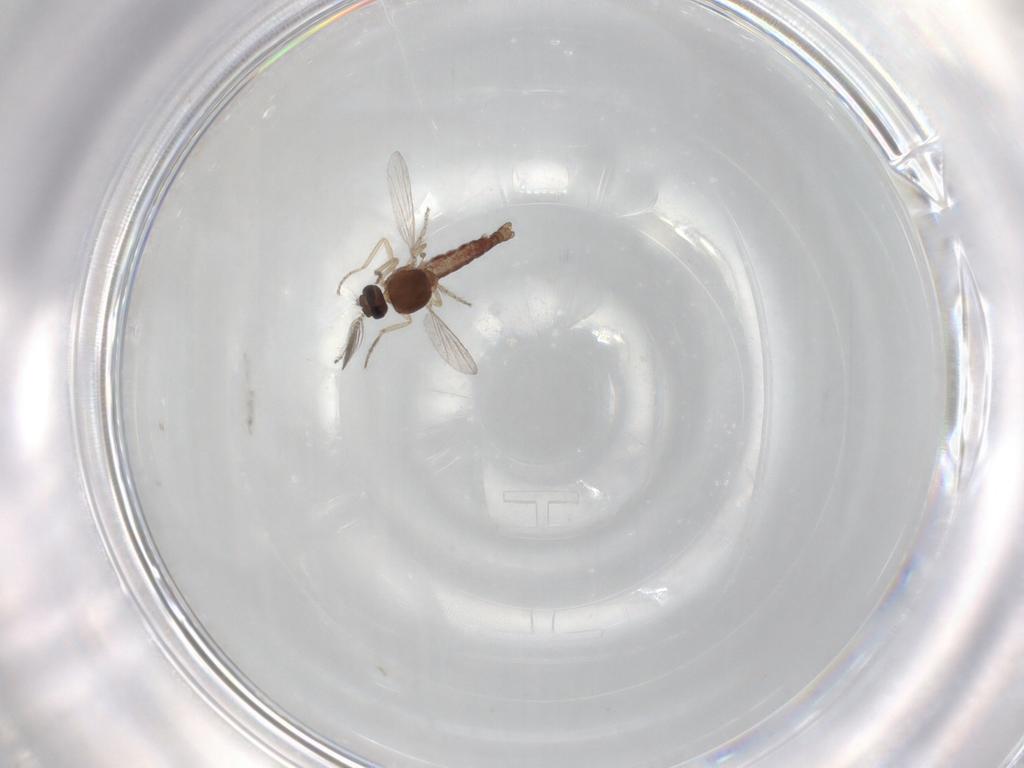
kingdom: Animalia
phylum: Arthropoda
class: Insecta
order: Diptera
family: Ceratopogonidae
